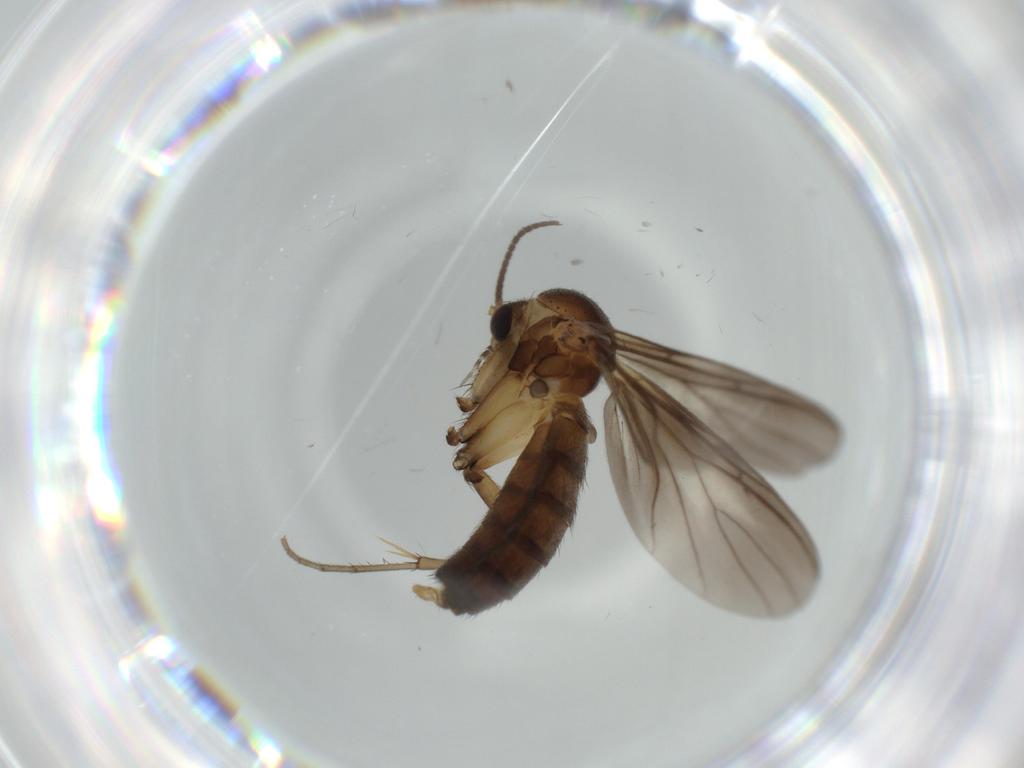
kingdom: Animalia
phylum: Arthropoda
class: Insecta
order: Diptera
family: Mycetophilidae
